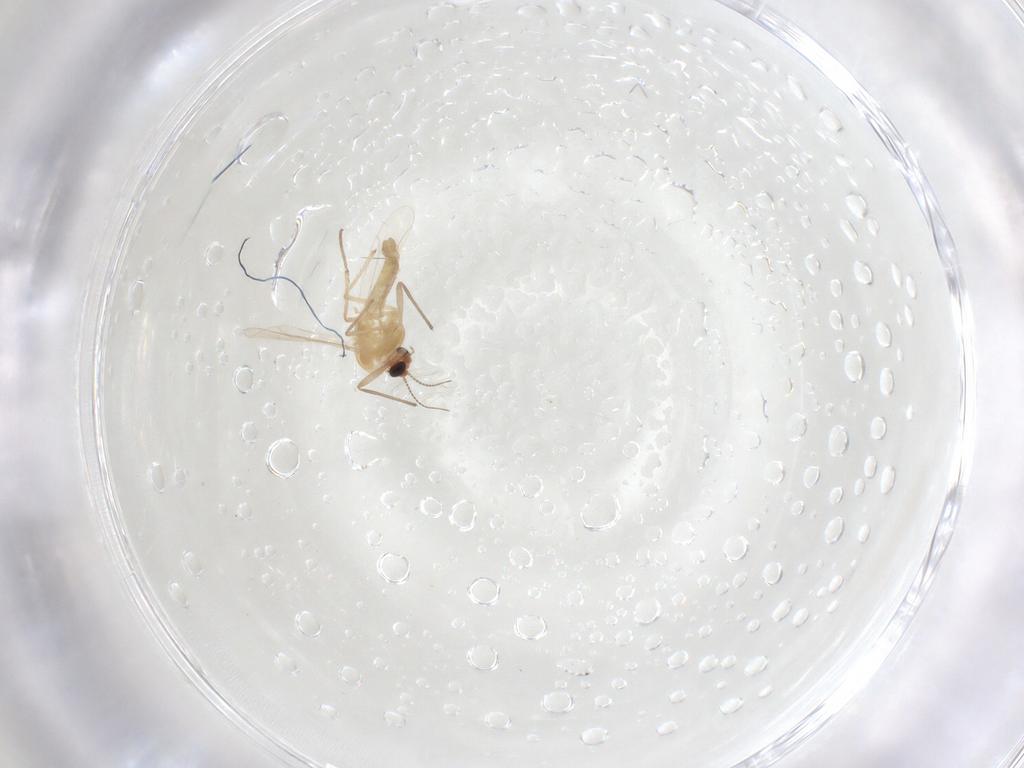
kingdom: Animalia
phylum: Arthropoda
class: Insecta
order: Diptera
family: Chironomidae
